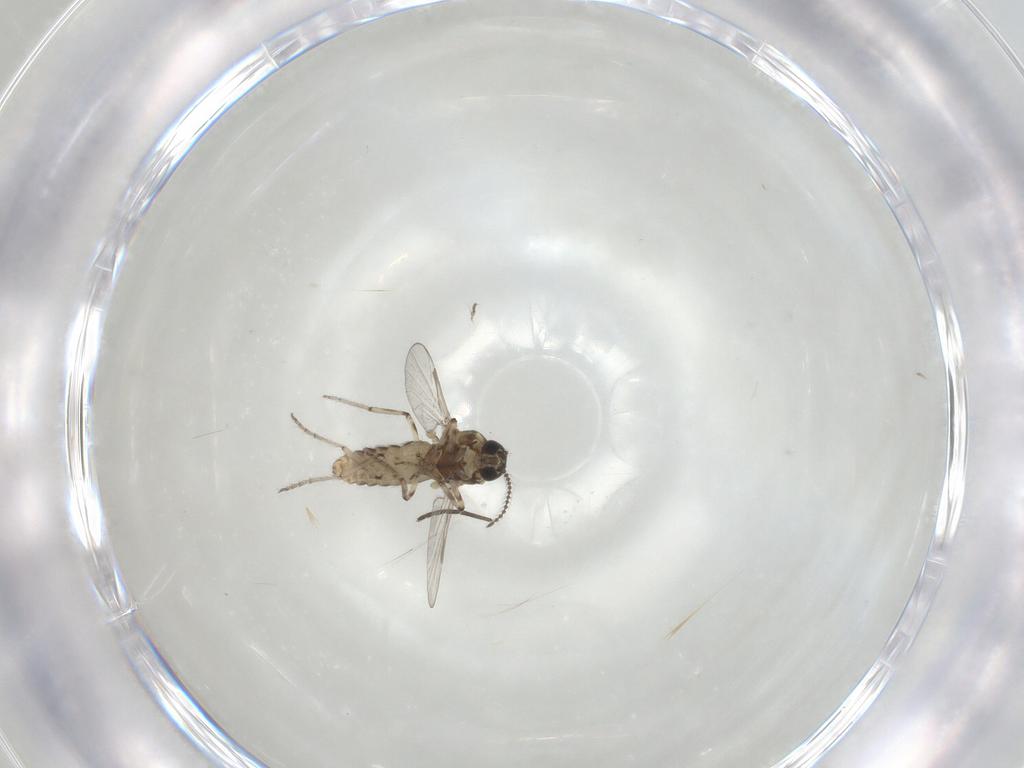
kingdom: Animalia
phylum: Arthropoda
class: Insecta
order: Diptera
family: Ceratopogonidae
